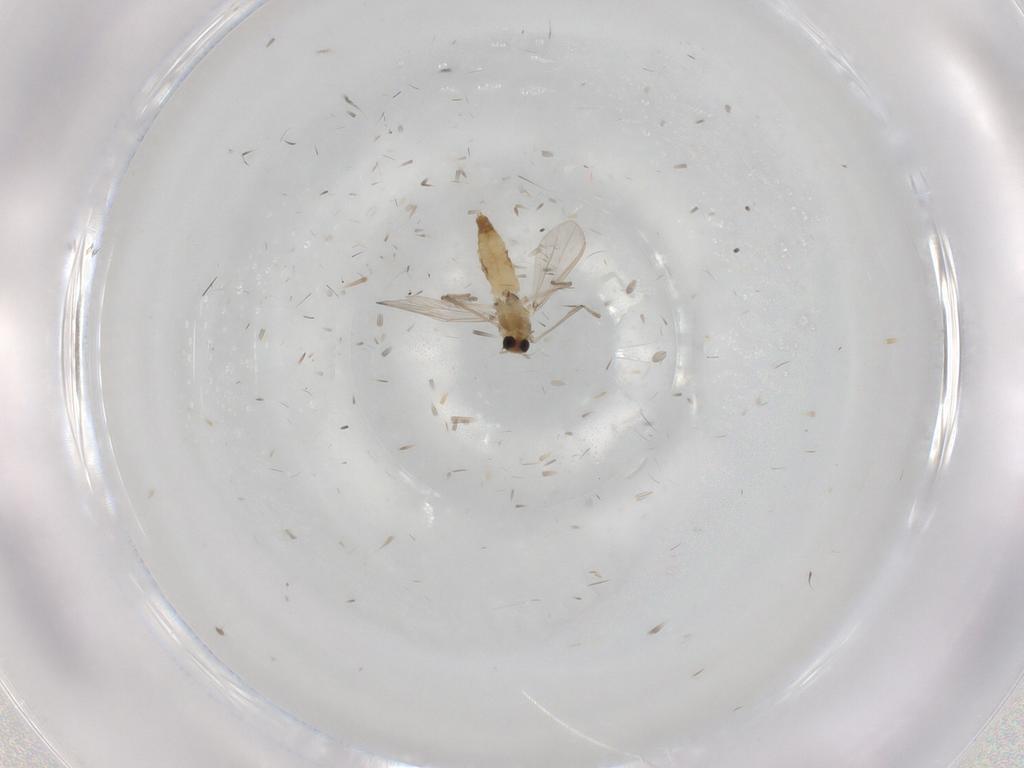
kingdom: Animalia
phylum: Arthropoda
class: Insecta
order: Diptera
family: Chironomidae
